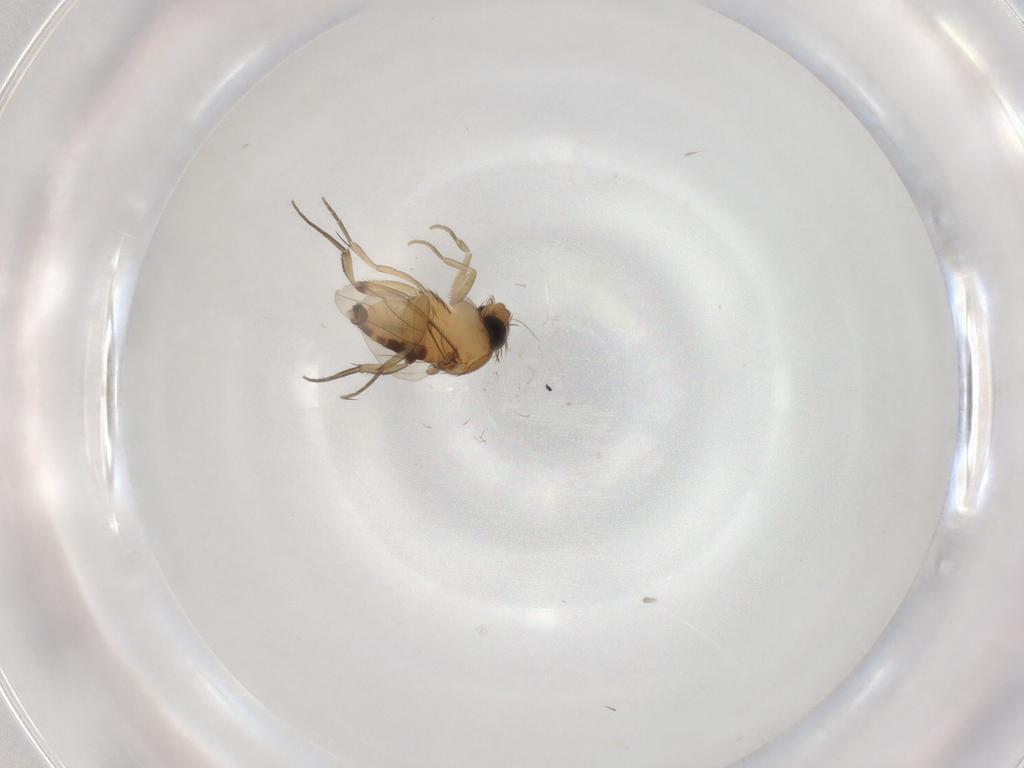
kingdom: Animalia
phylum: Arthropoda
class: Insecta
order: Diptera
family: Phoridae
